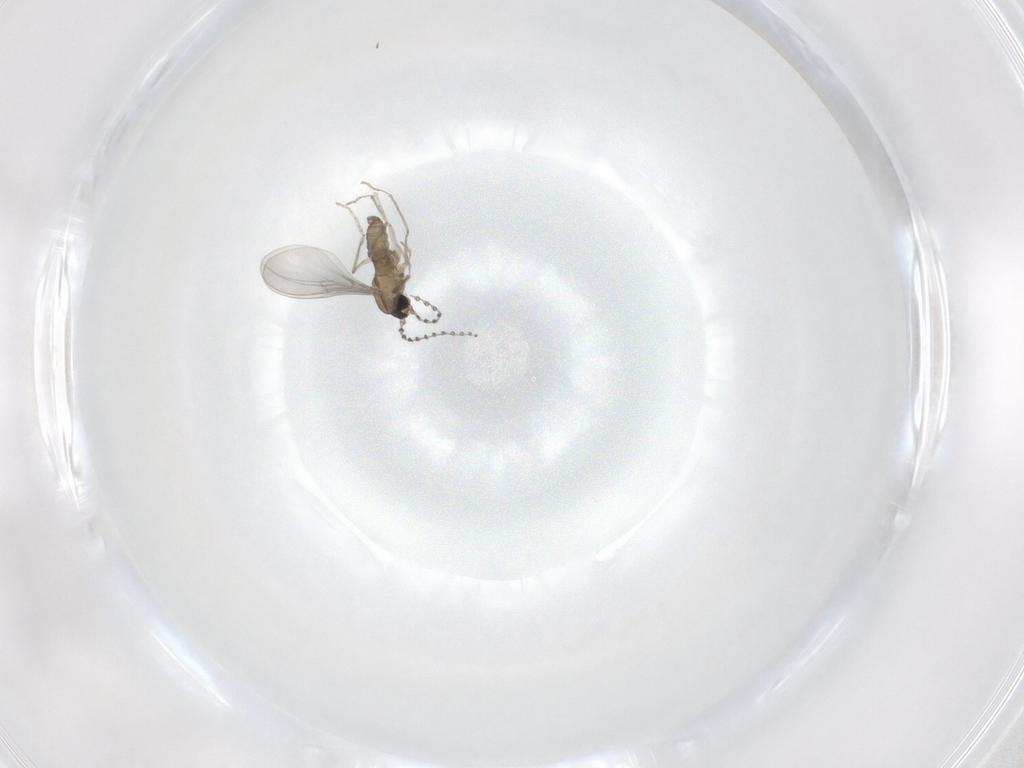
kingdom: Animalia
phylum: Arthropoda
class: Insecta
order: Diptera
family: Cecidomyiidae
